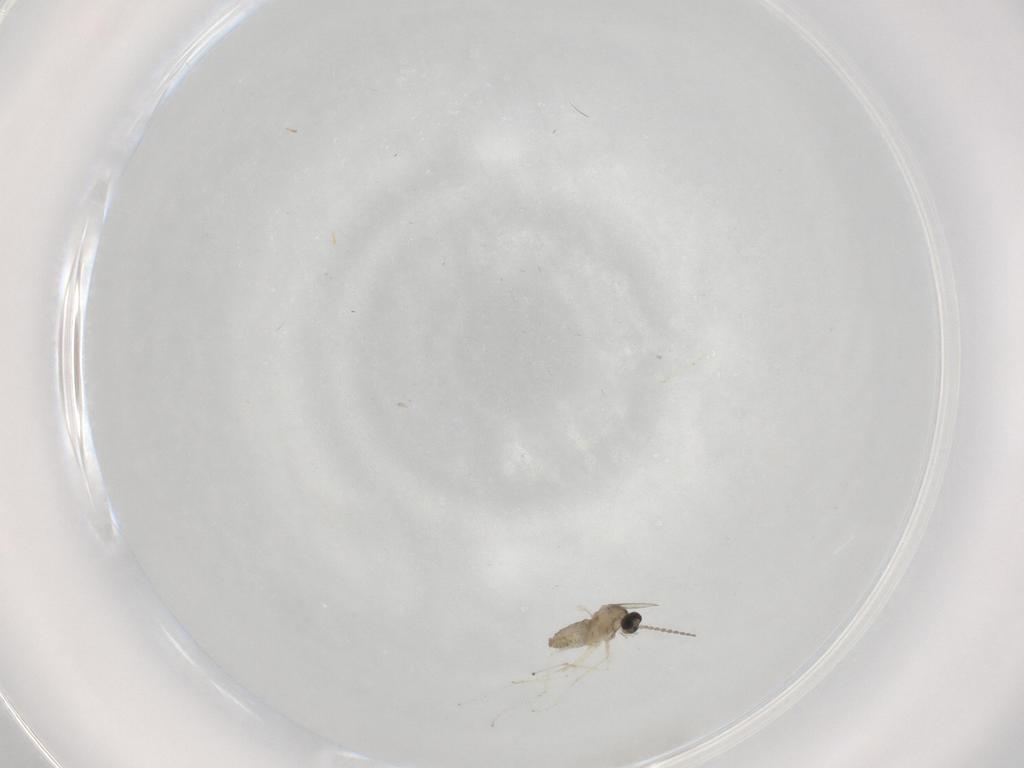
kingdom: Animalia
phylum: Arthropoda
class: Insecta
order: Diptera
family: Cecidomyiidae
